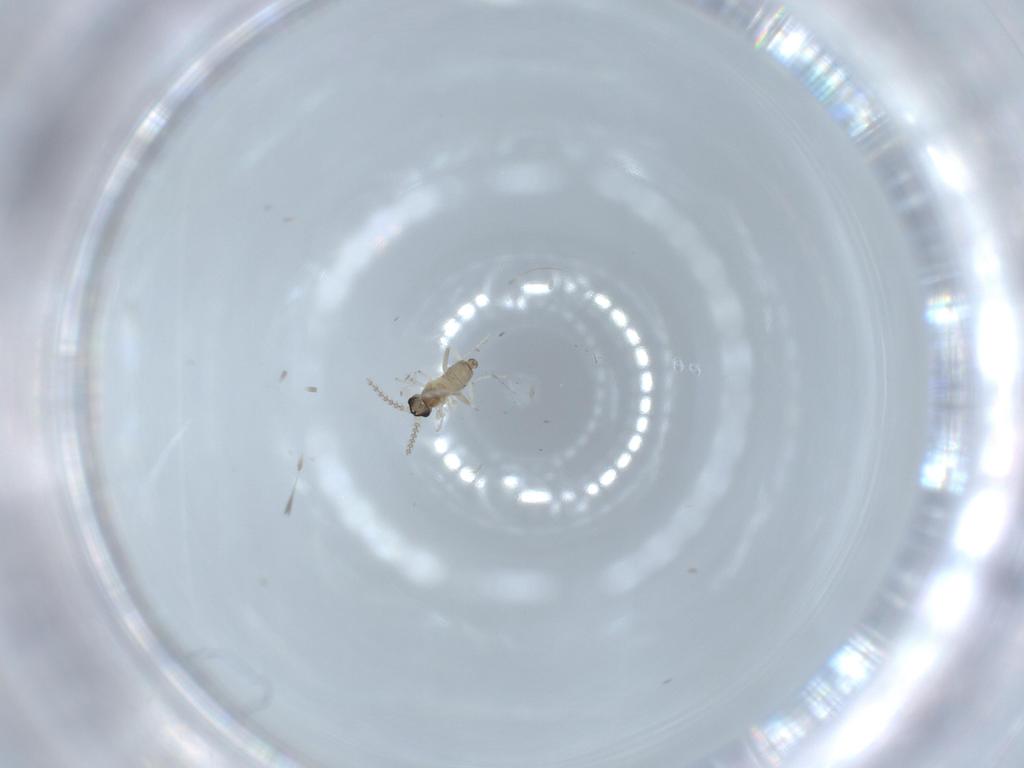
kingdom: Animalia
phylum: Arthropoda
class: Insecta
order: Diptera
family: Cecidomyiidae
